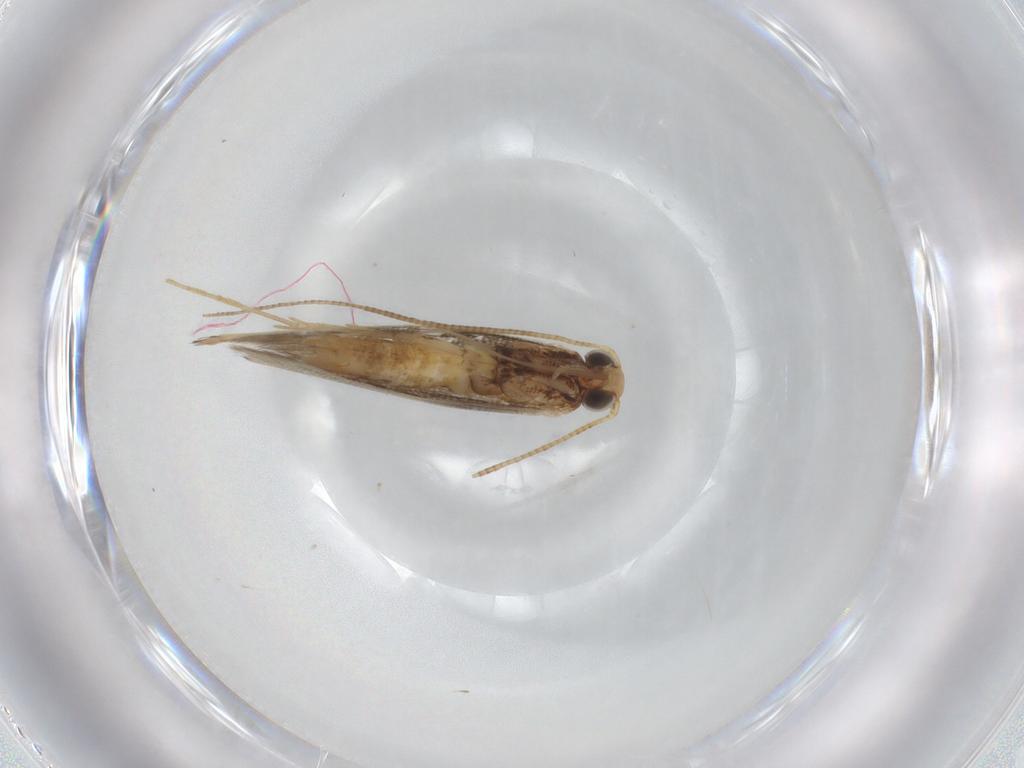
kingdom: Animalia
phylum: Arthropoda
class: Insecta
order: Lepidoptera
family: Gracillariidae
